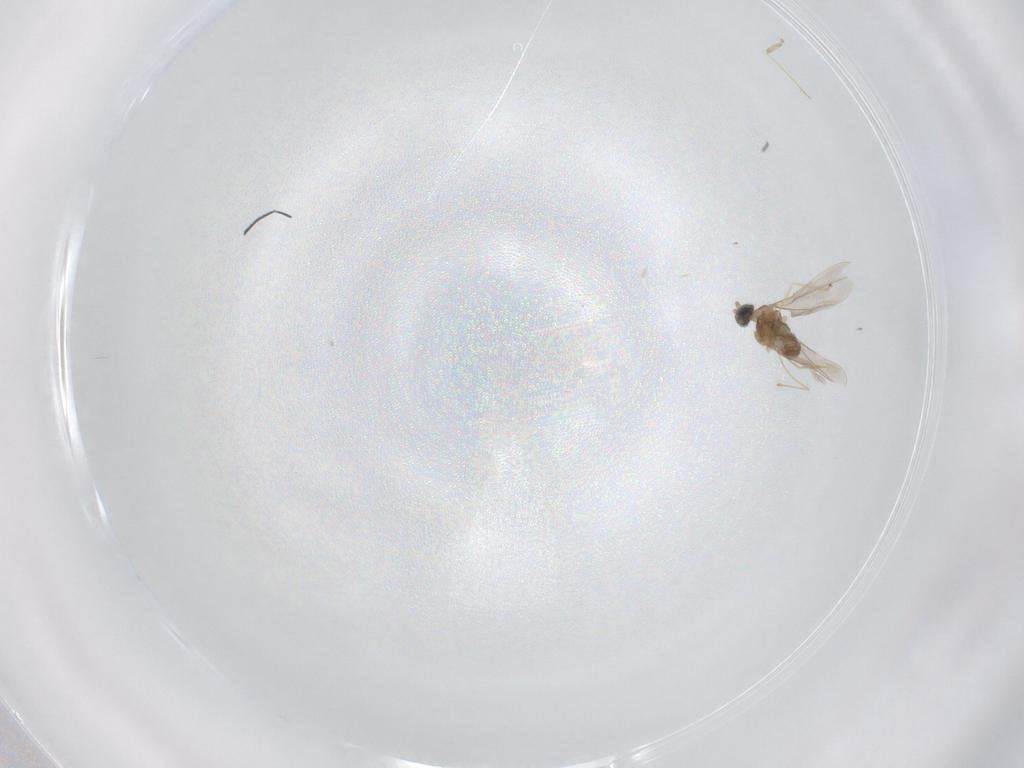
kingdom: Animalia
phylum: Arthropoda
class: Insecta
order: Diptera
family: Cecidomyiidae
